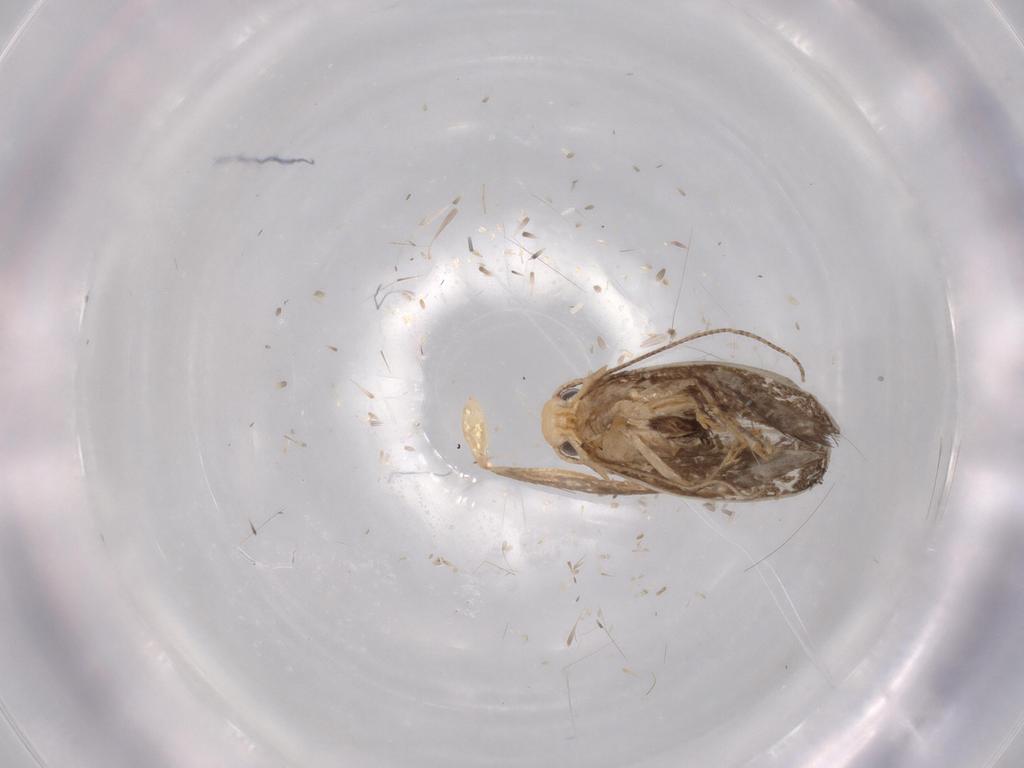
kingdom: Animalia
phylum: Arthropoda
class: Insecta
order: Lepidoptera
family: Tineidae
